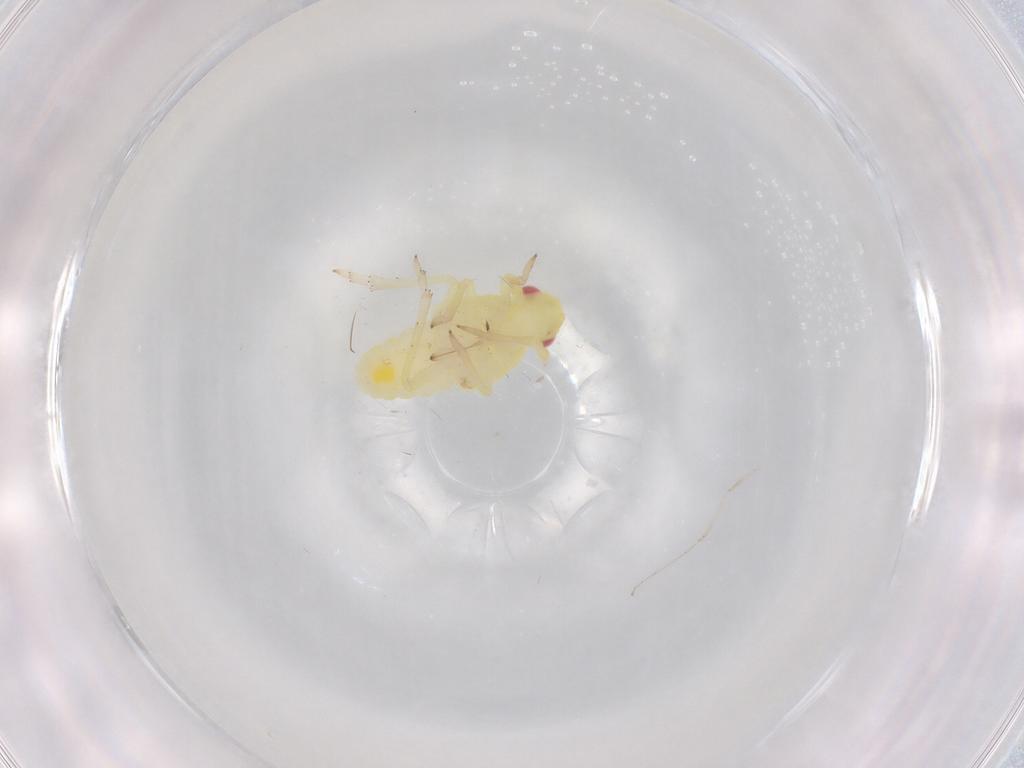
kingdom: Animalia
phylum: Arthropoda
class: Insecta
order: Hemiptera
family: Tropiduchidae
